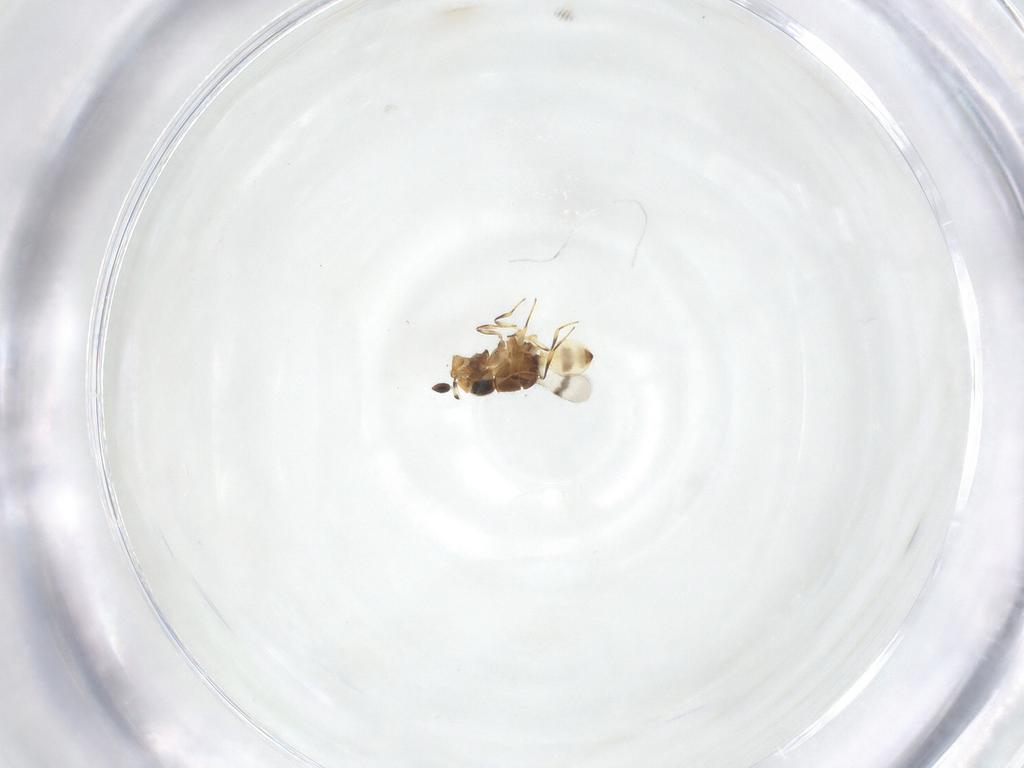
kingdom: Animalia
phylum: Arthropoda
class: Arachnida
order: Araneae
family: Pholcidae
